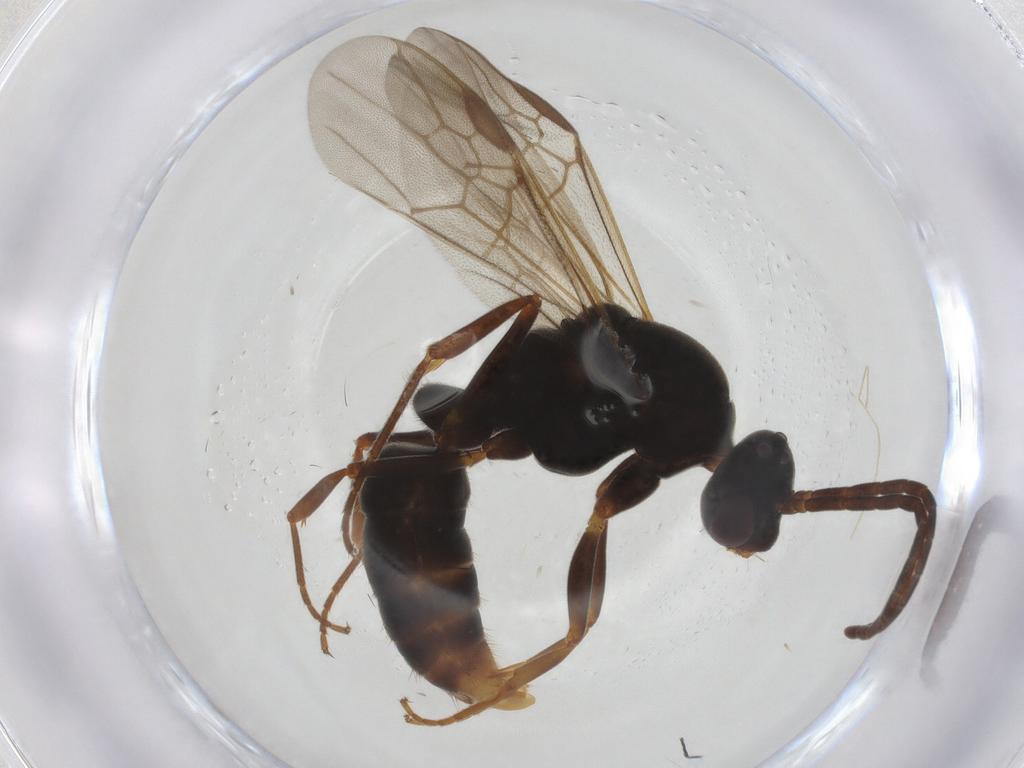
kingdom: Animalia
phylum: Arthropoda
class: Insecta
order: Hymenoptera
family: Formicidae
